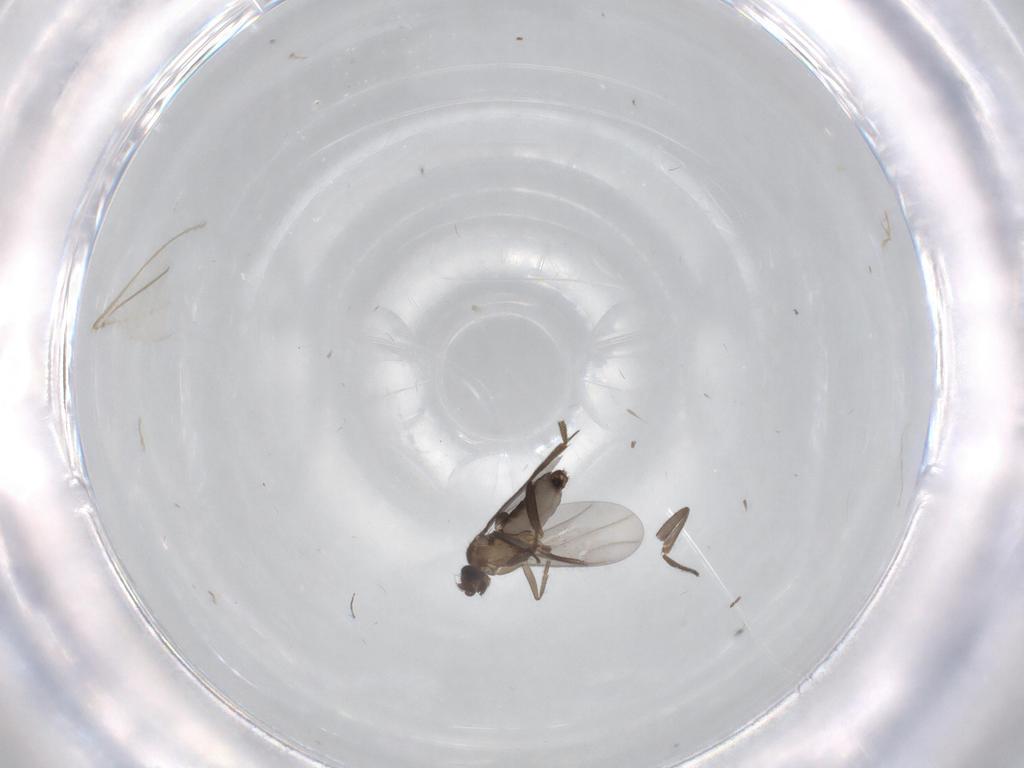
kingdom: Animalia
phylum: Arthropoda
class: Insecta
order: Diptera
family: Phoridae
